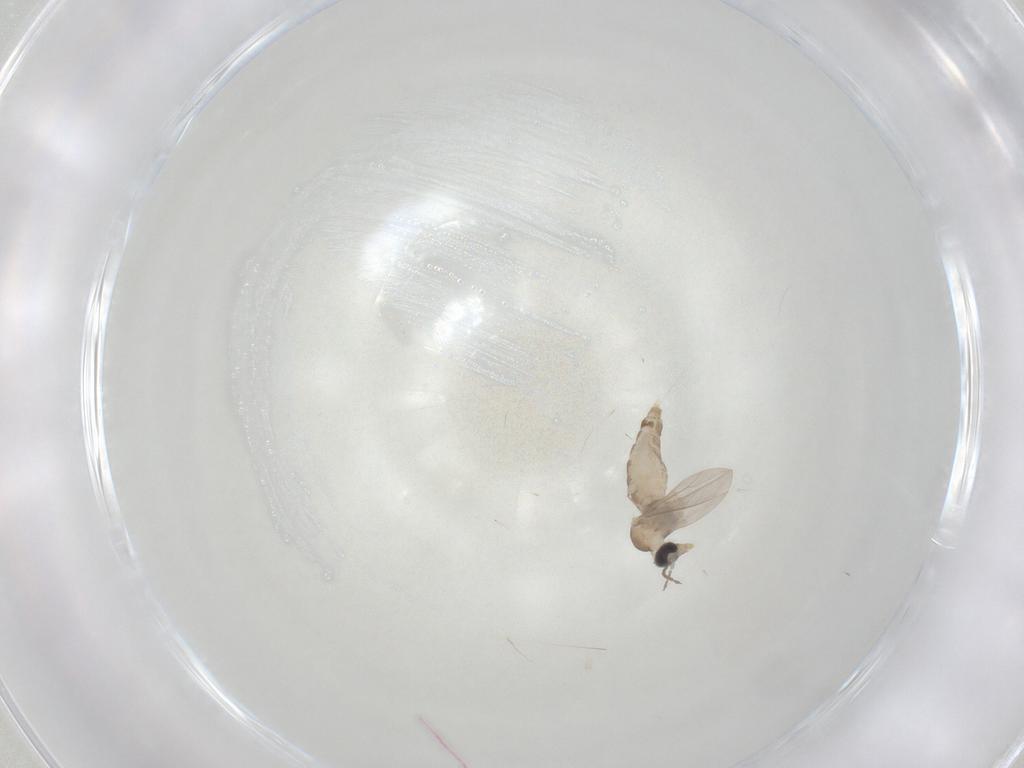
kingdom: Animalia
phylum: Arthropoda
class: Insecta
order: Diptera
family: Cecidomyiidae
